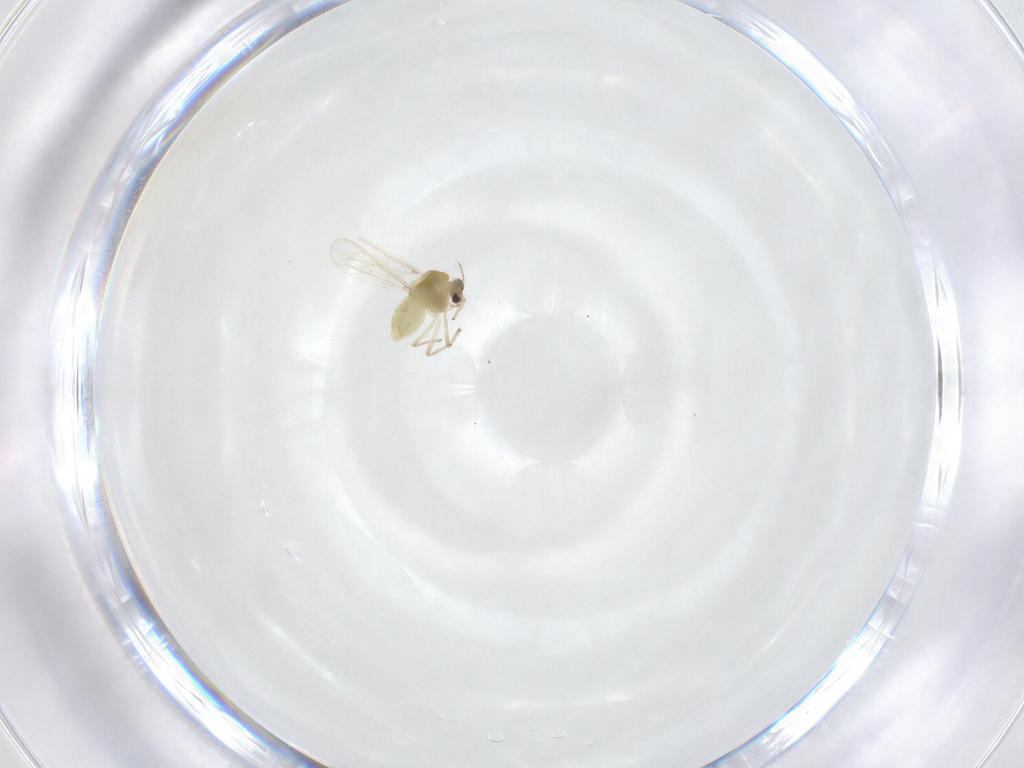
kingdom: Animalia
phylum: Arthropoda
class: Insecta
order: Diptera
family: Chironomidae
